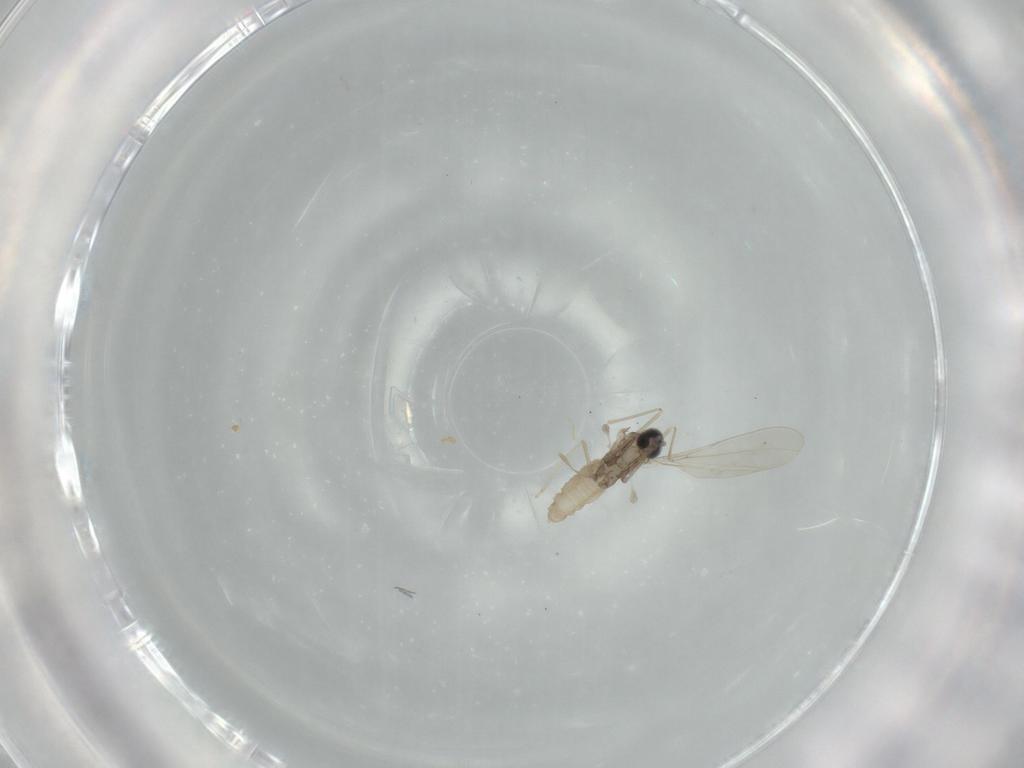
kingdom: Animalia
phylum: Arthropoda
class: Insecta
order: Diptera
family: Cecidomyiidae
